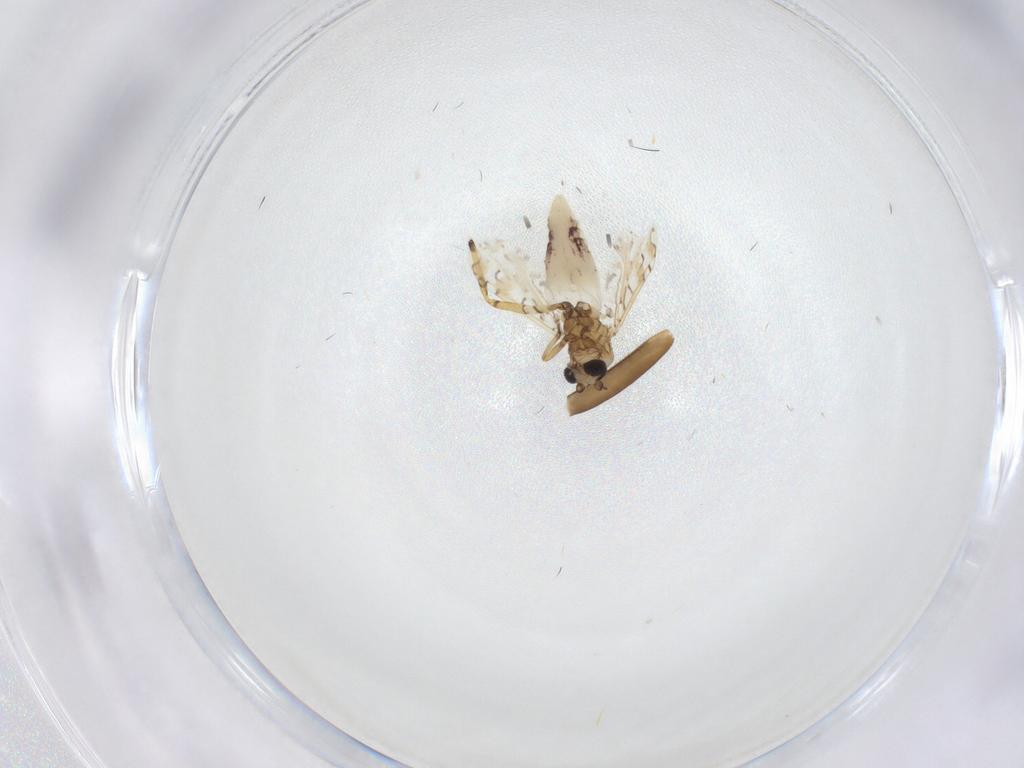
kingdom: Animalia
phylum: Arthropoda
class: Insecta
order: Diptera
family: Ceratopogonidae
